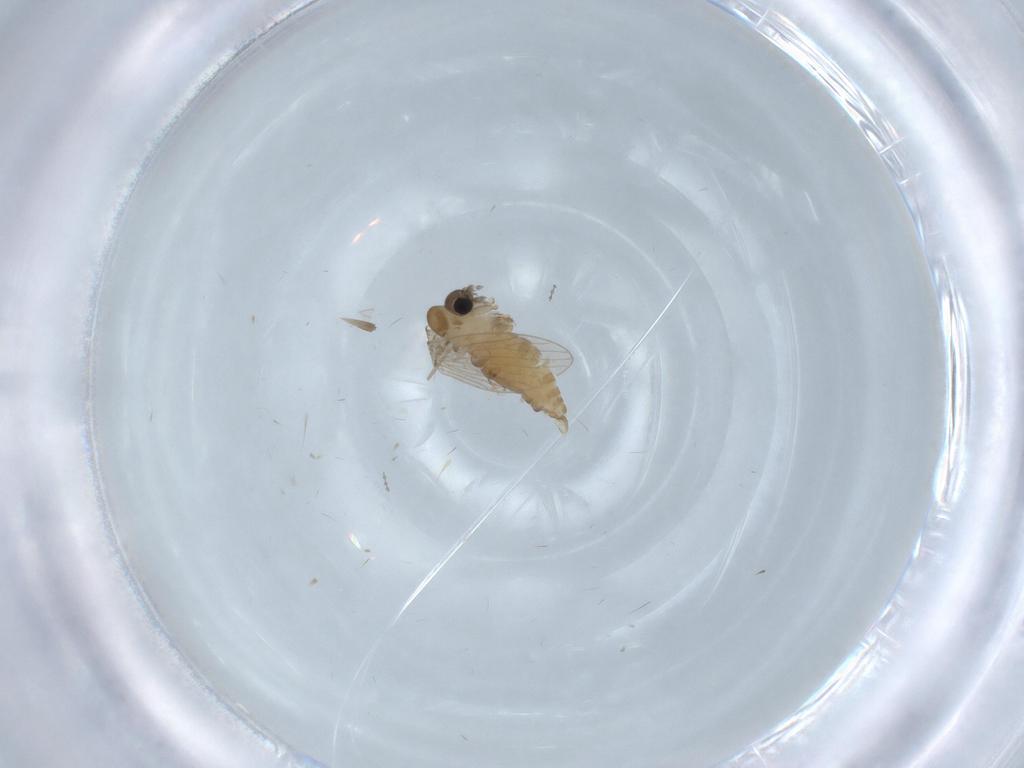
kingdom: Animalia
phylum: Arthropoda
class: Insecta
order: Diptera
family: Psychodidae
